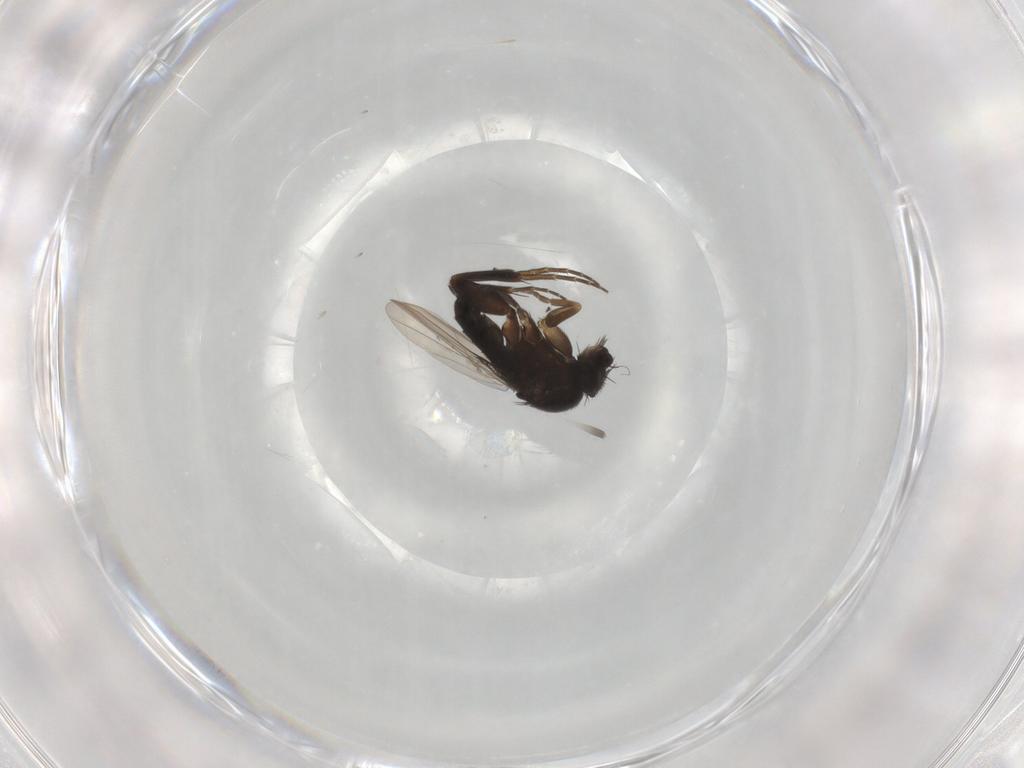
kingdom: Animalia
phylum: Arthropoda
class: Insecta
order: Diptera
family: Phoridae
